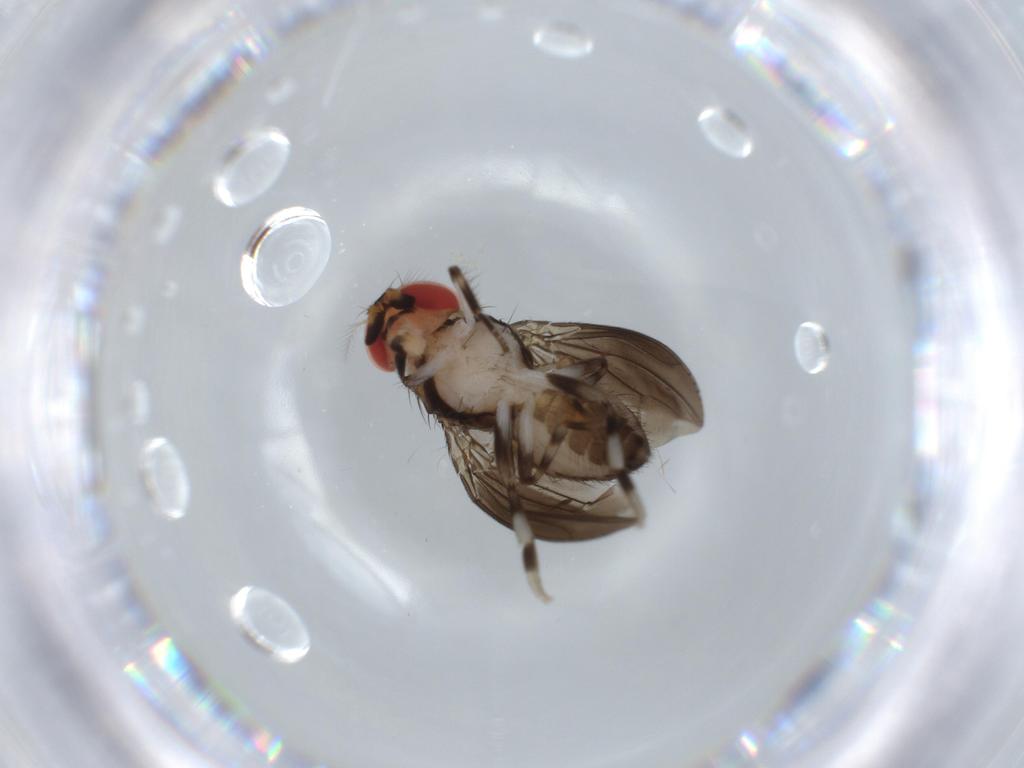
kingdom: Animalia
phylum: Arthropoda
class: Insecta
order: Diptera
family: Drosophilidae
